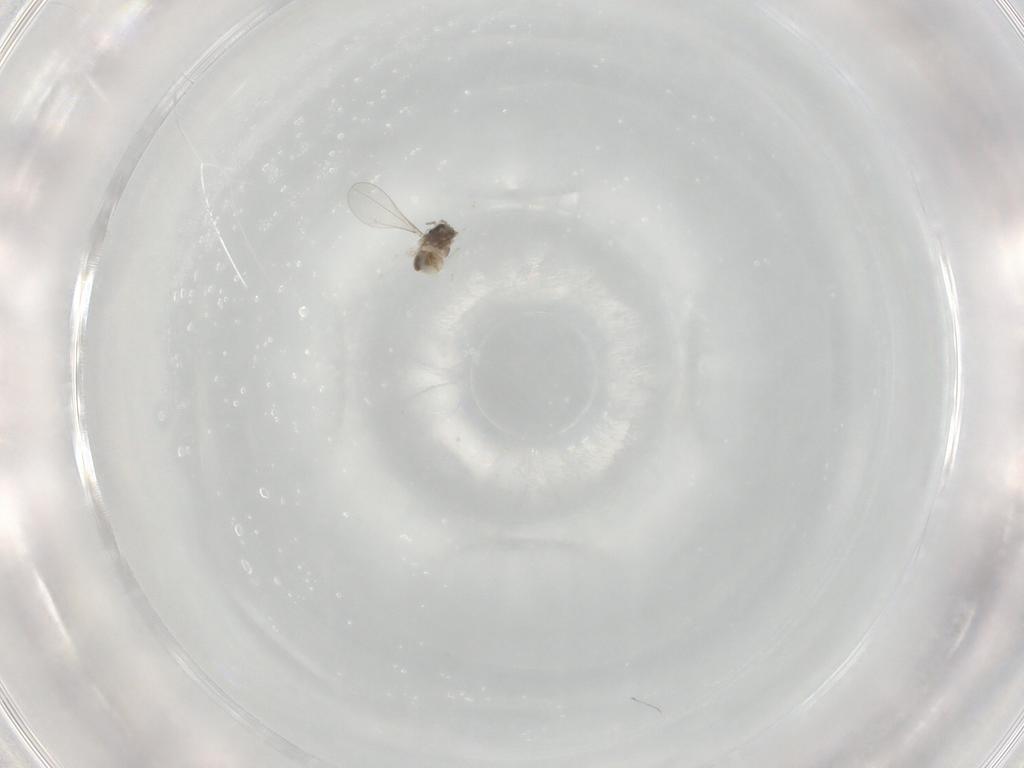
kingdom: Animalia
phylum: Arthropoda
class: Insecta
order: Diptera
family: Cecidomyiidae
